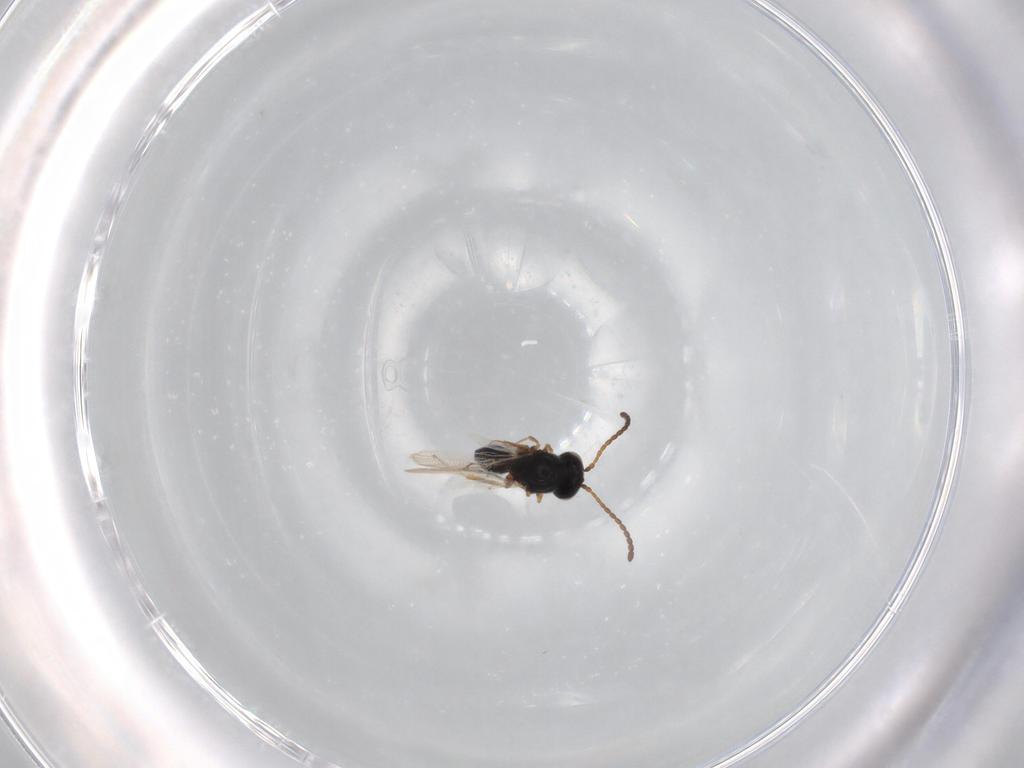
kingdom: Animalia
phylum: Arthropoda
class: Insecta
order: Hymenoptera
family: Figitidae
